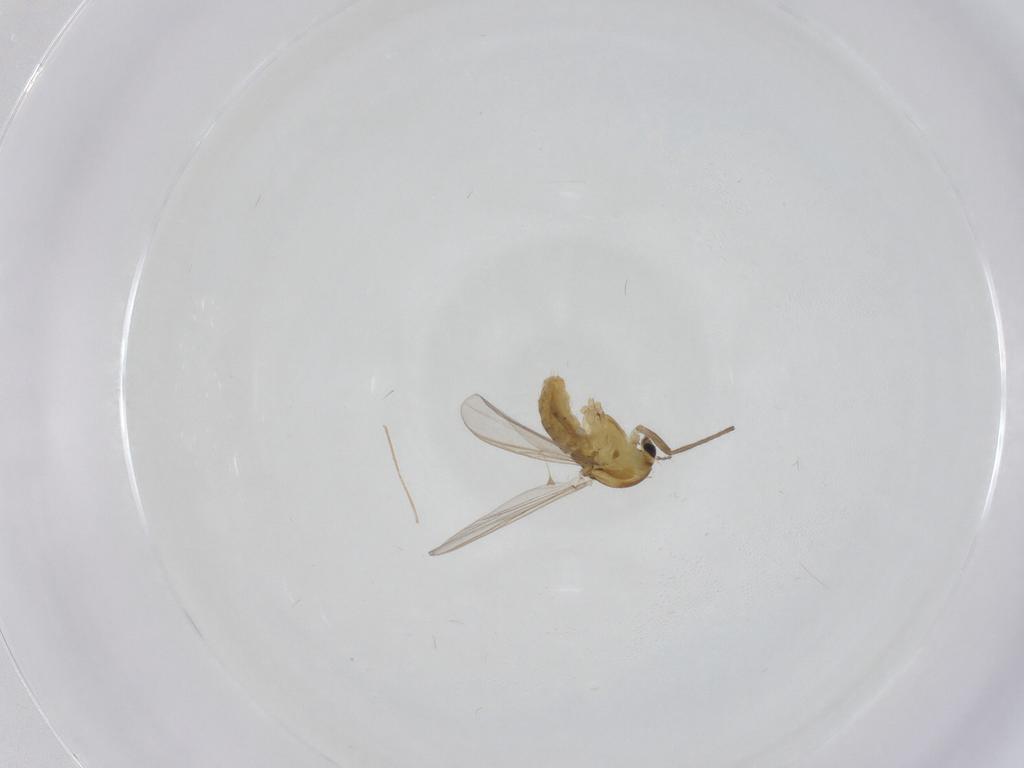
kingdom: Animalia
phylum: Arthropoda
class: Insecta
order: Diptera
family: Chironomidae
